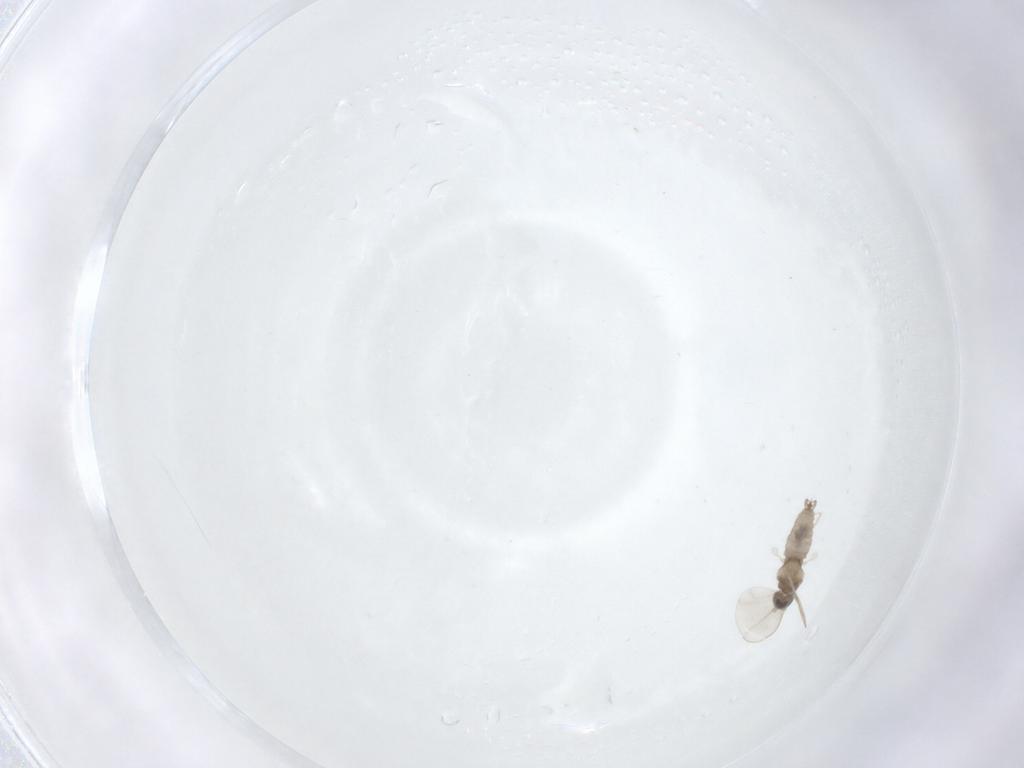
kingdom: Animalia
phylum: Arthropoda
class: Insecta
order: Diptera
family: Cecidomyiidae
